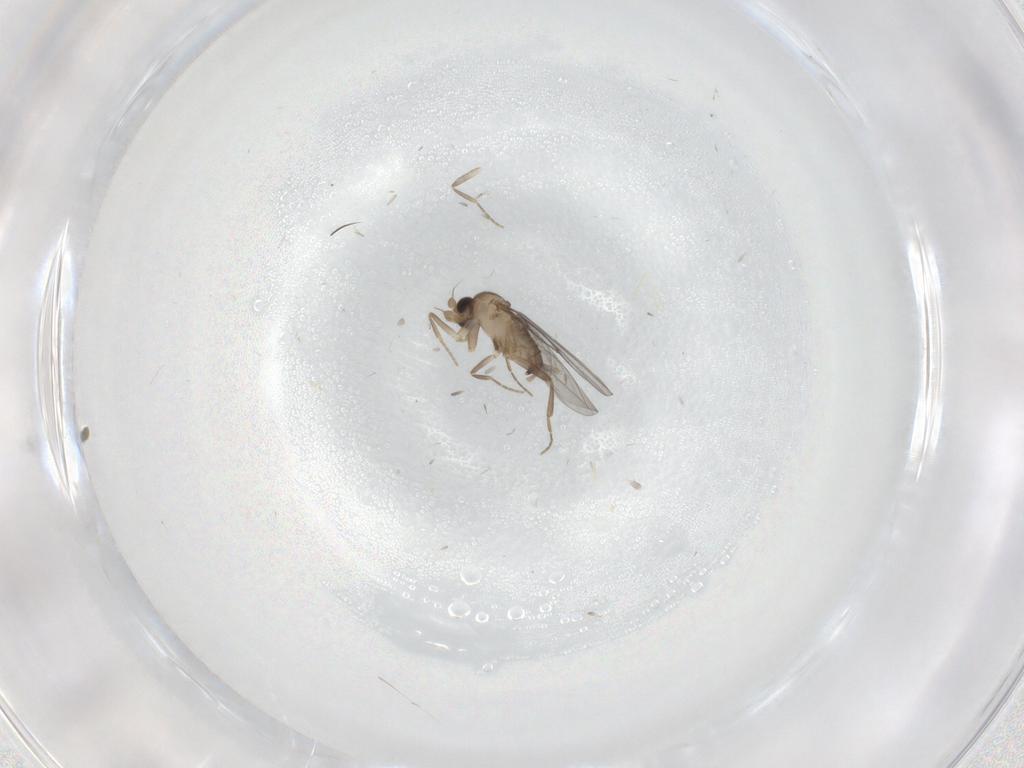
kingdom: Animalia
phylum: Arthropoda
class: Insecta
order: Diptera
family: Cecidomyiidae
